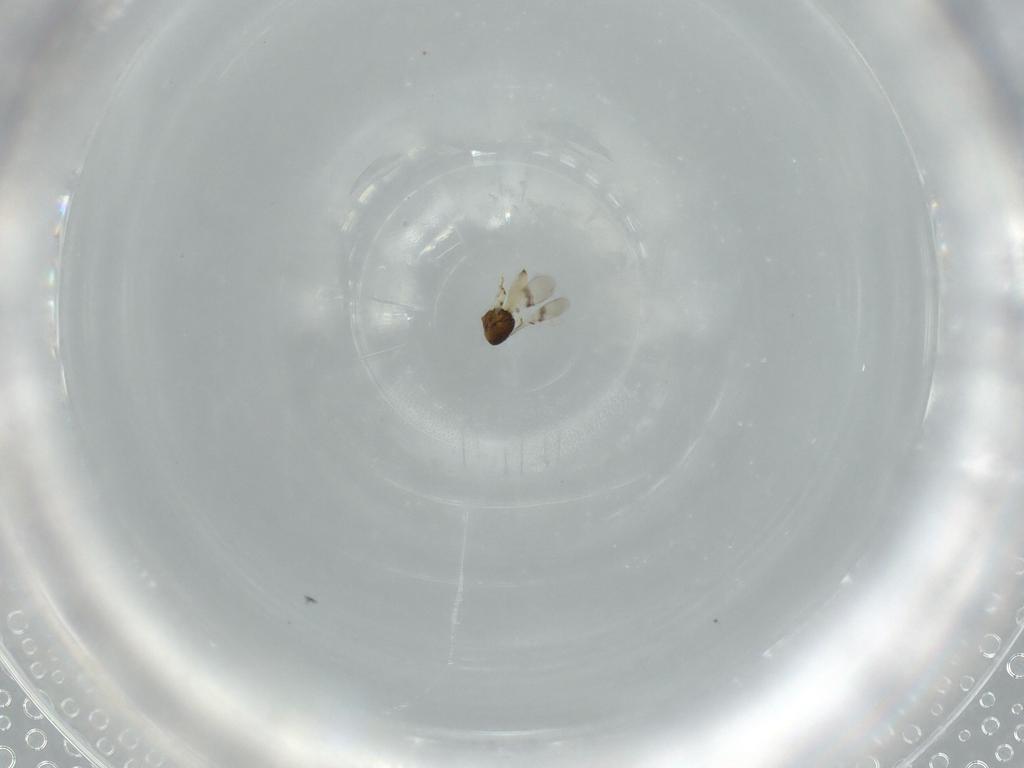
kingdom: Animalia
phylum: Arthropoda
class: Insecta
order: Hymenoptera
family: Scelionidae
